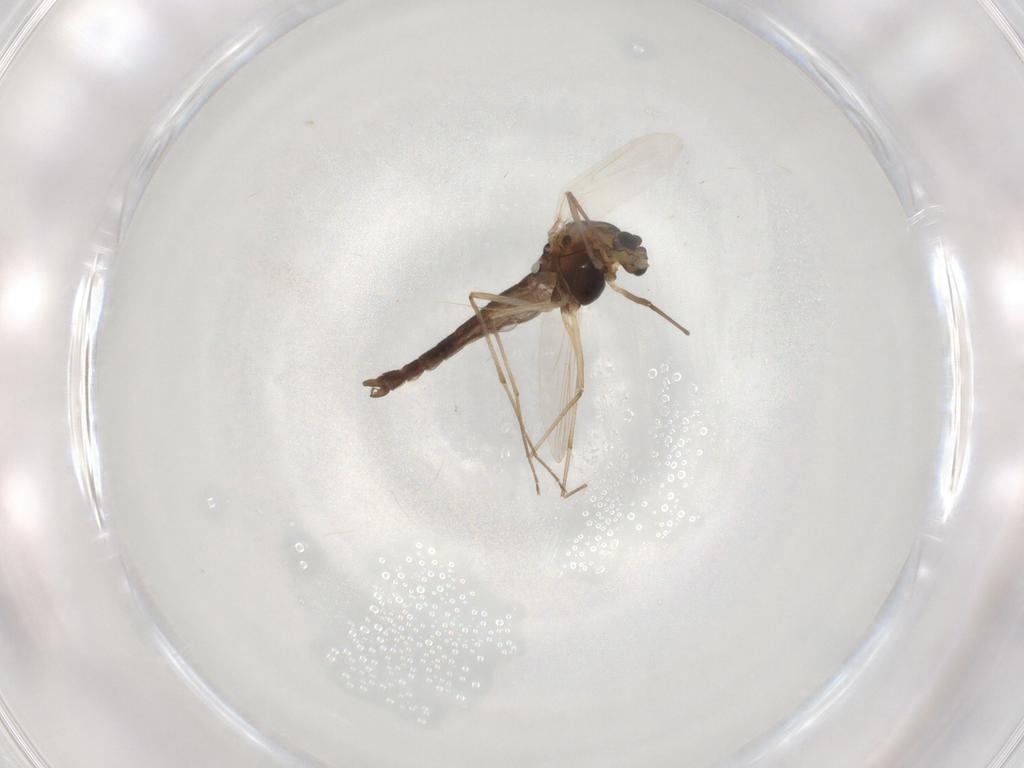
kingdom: Animalia
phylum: Arthropoda
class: Insecta
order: Diptera
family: Chironomidae
